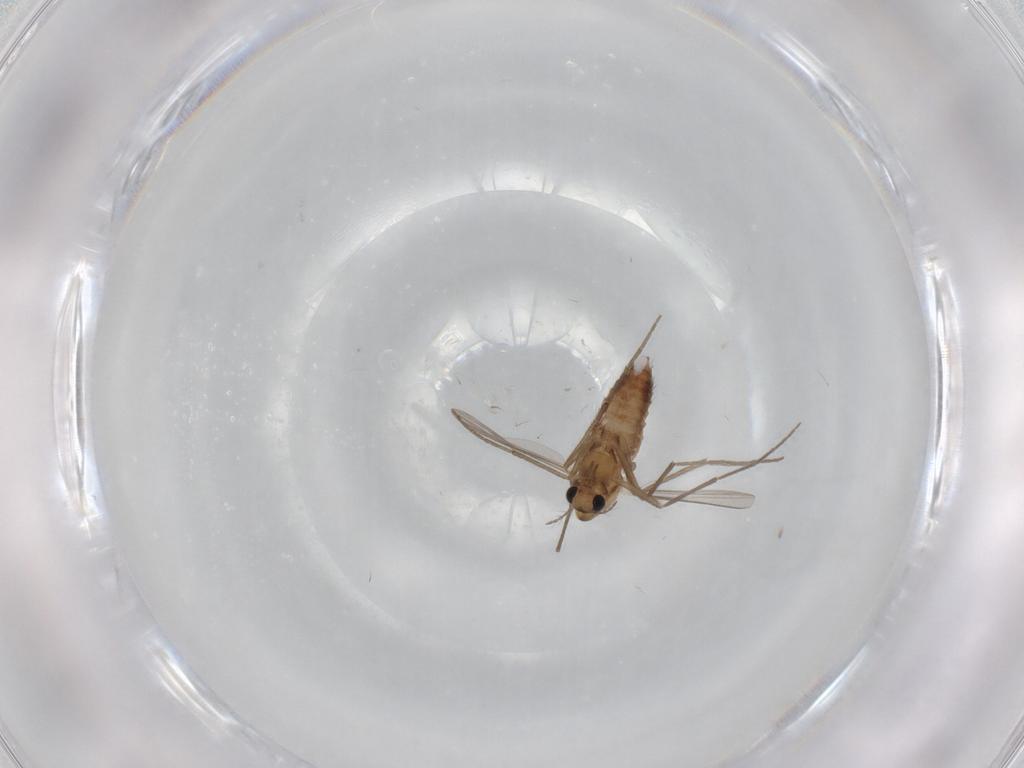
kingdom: Animalia
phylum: Arthropoda
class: Insecta
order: Diptera
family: Chironomidae
